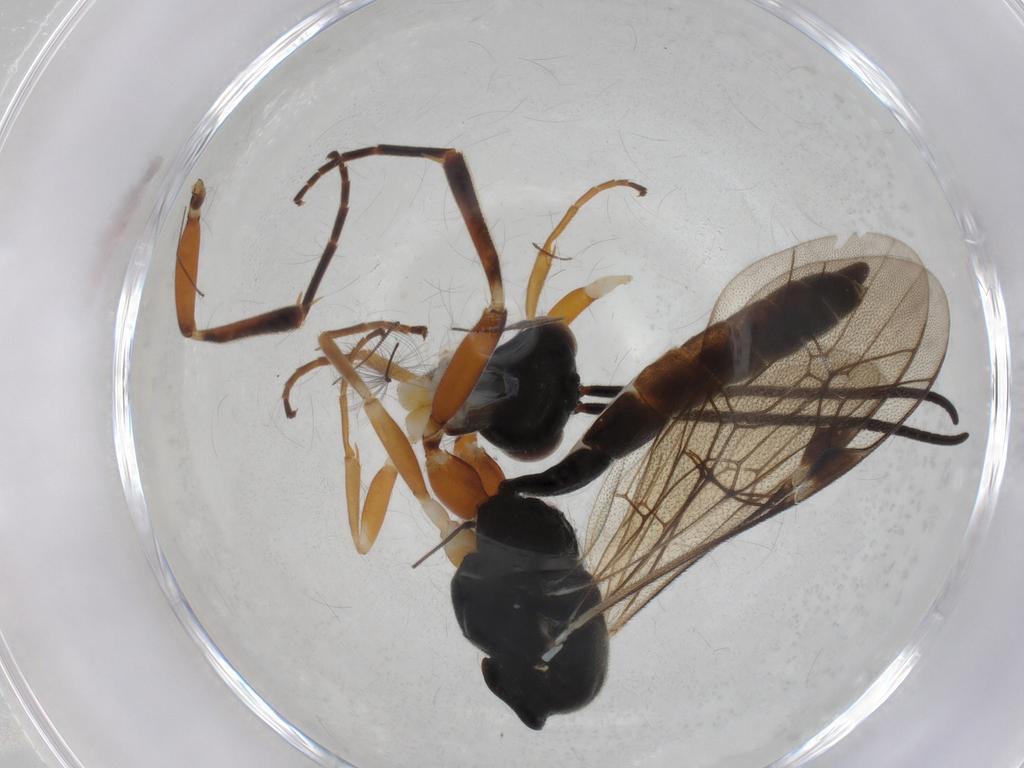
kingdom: Animalia
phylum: Arthropoda
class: Insecta
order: Hymenoptera
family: Ichneumonidae
